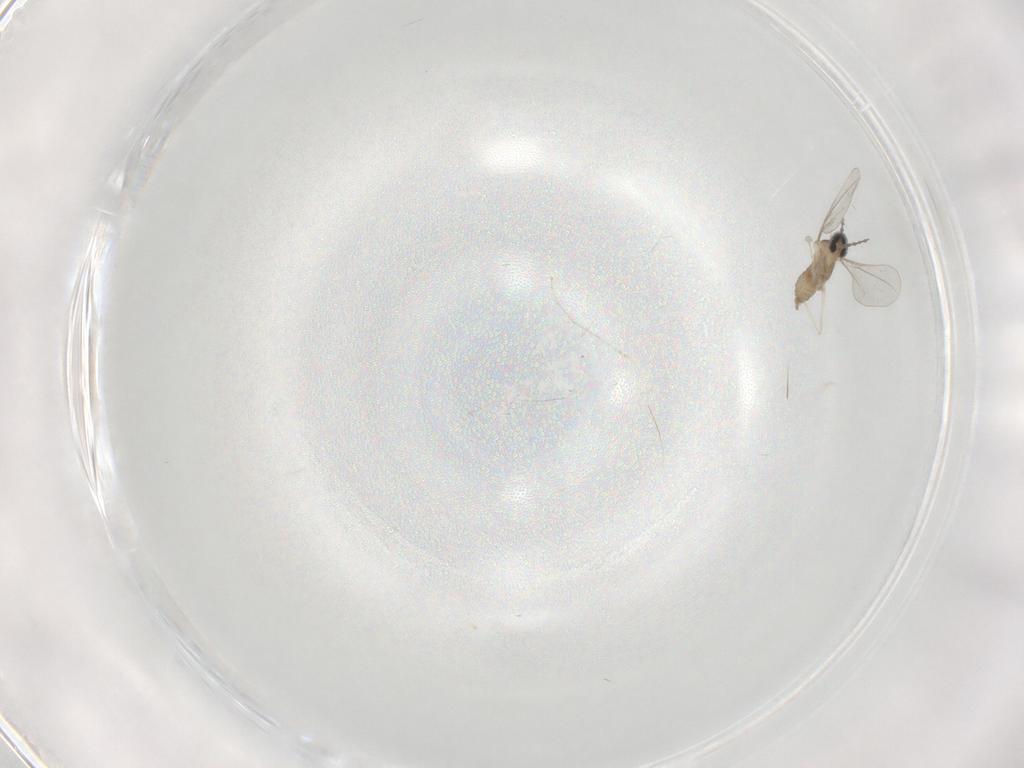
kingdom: Animalia
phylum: Arthropoda
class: Insecta
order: Diptera
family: Cecidomyiidae
